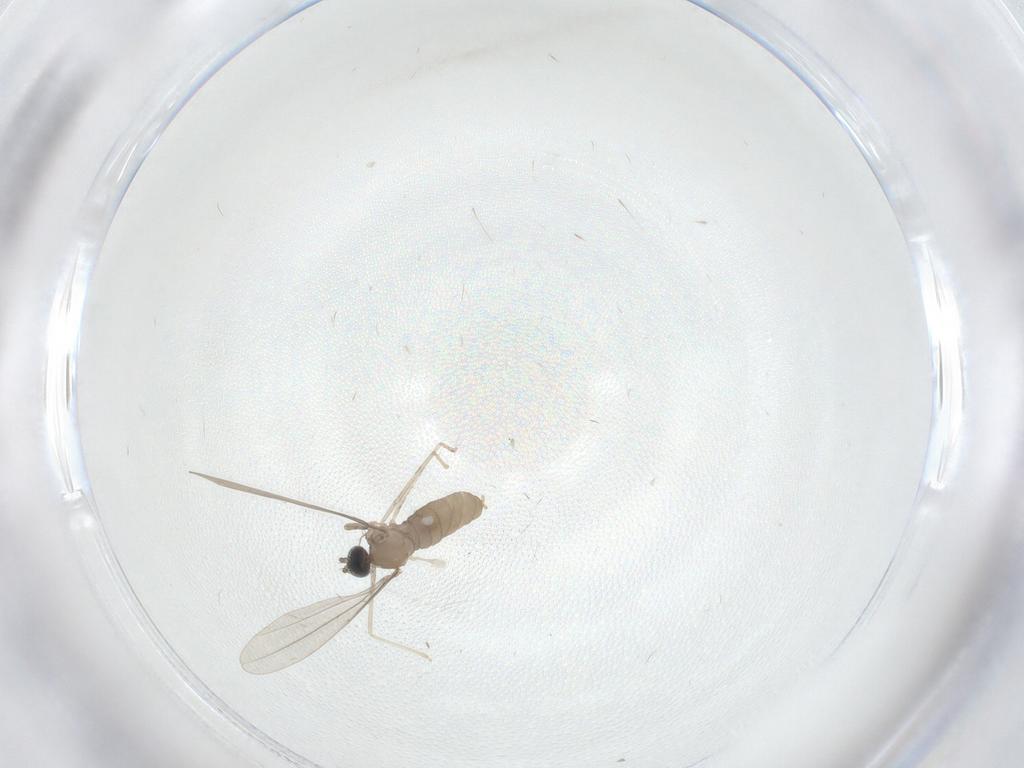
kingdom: Animalia
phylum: Arthropoda
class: Insecta
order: Diptera
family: Cecidomyiidae
